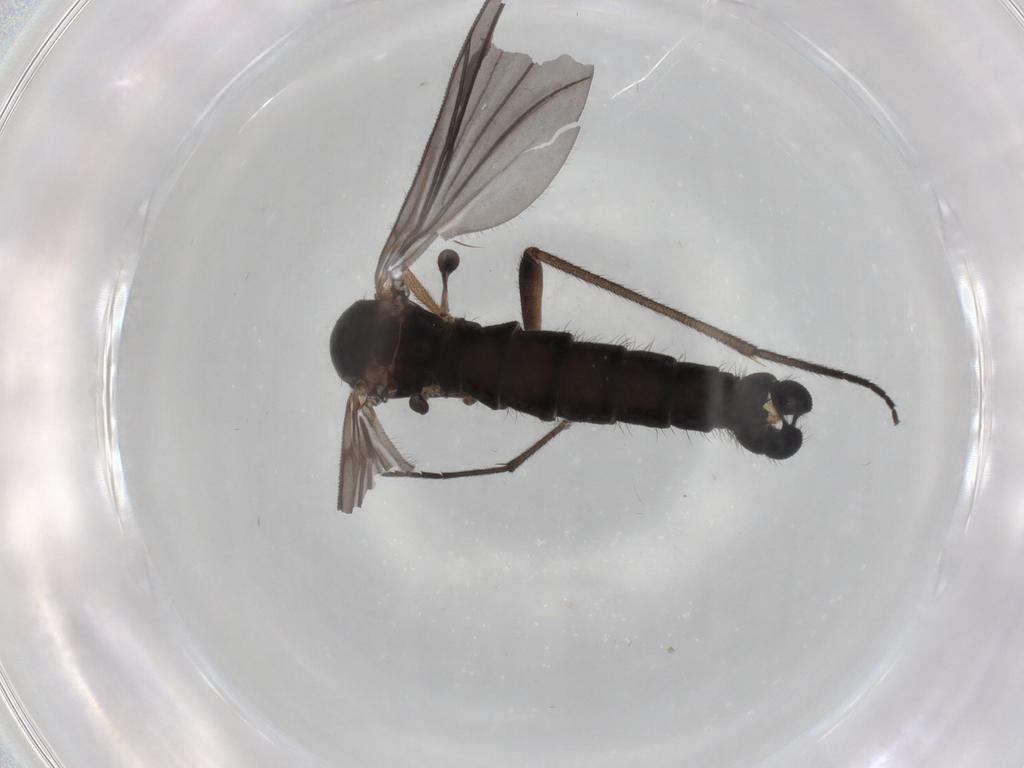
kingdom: Animalia
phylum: Arthropoda
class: Insecta
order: Diptera
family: Sciaridae
